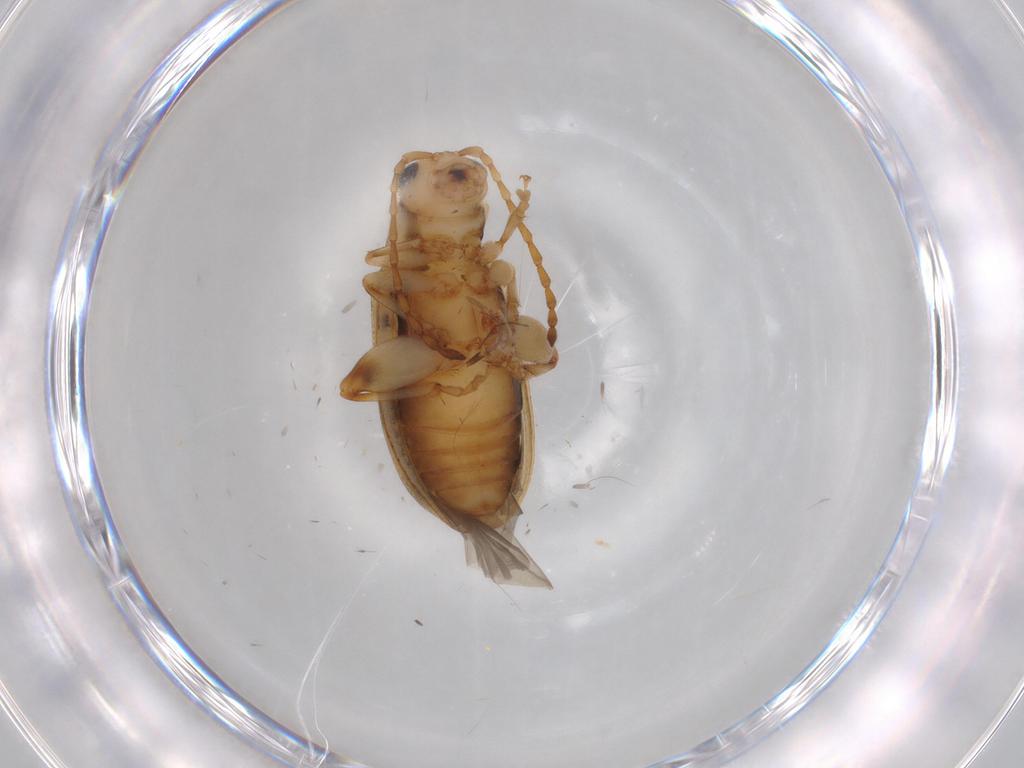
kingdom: Animalia
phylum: Arthropoda
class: Insecta
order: Coleoptera
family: Chrysomelidae
